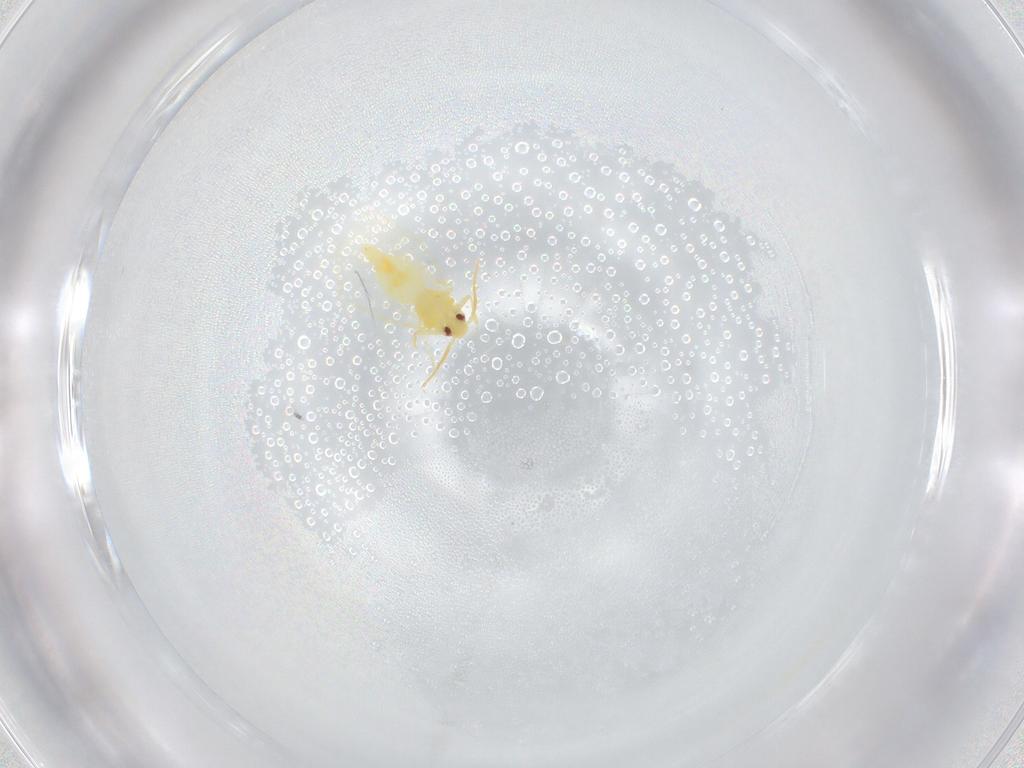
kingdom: Animalia
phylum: Arthropoda
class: Insecta
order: Hemiptera
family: Aleyrodidae
